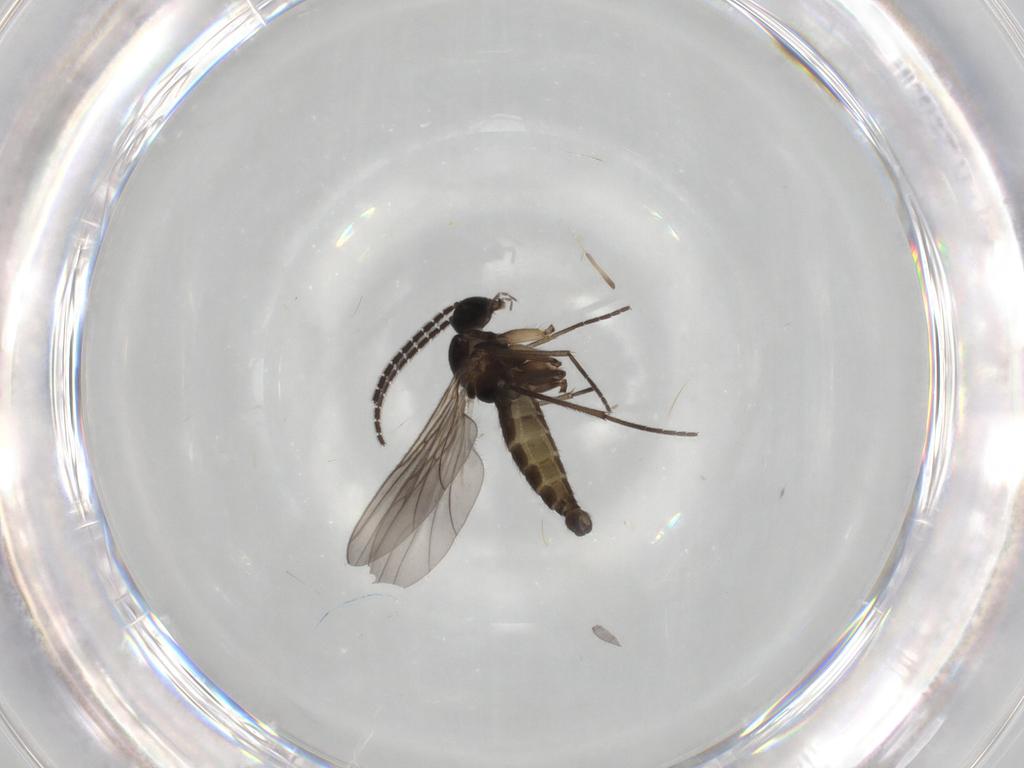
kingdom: Animalia
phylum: Arthropoda
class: Insecta
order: Diptera
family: Sciaridae
